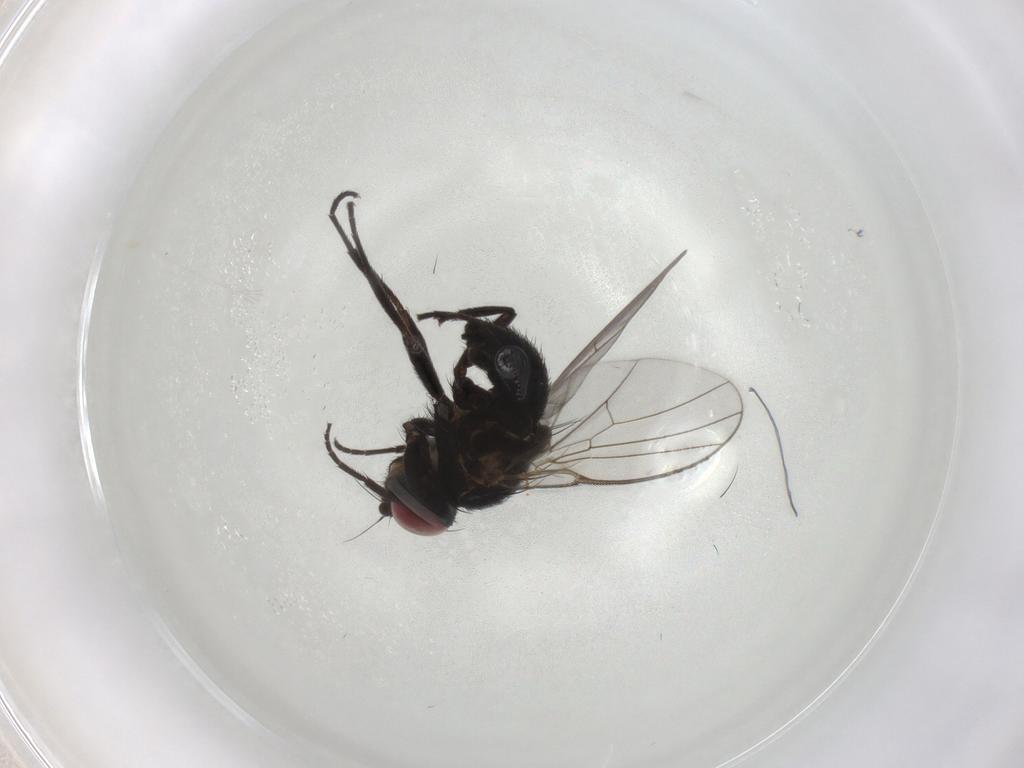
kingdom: Animalia
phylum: Arthropoda
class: Insecta
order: Diptera
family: Agromyzidae
